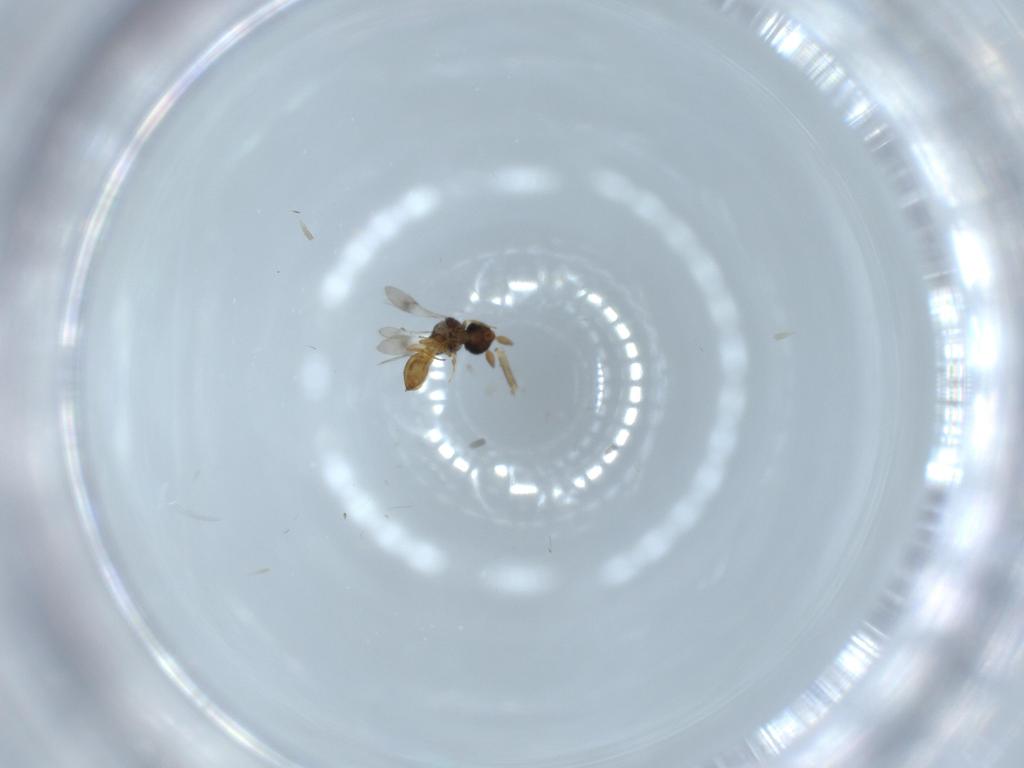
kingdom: Animalia
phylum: Arthropoda
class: Insecta
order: Hymenoptera
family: Scelionidae
